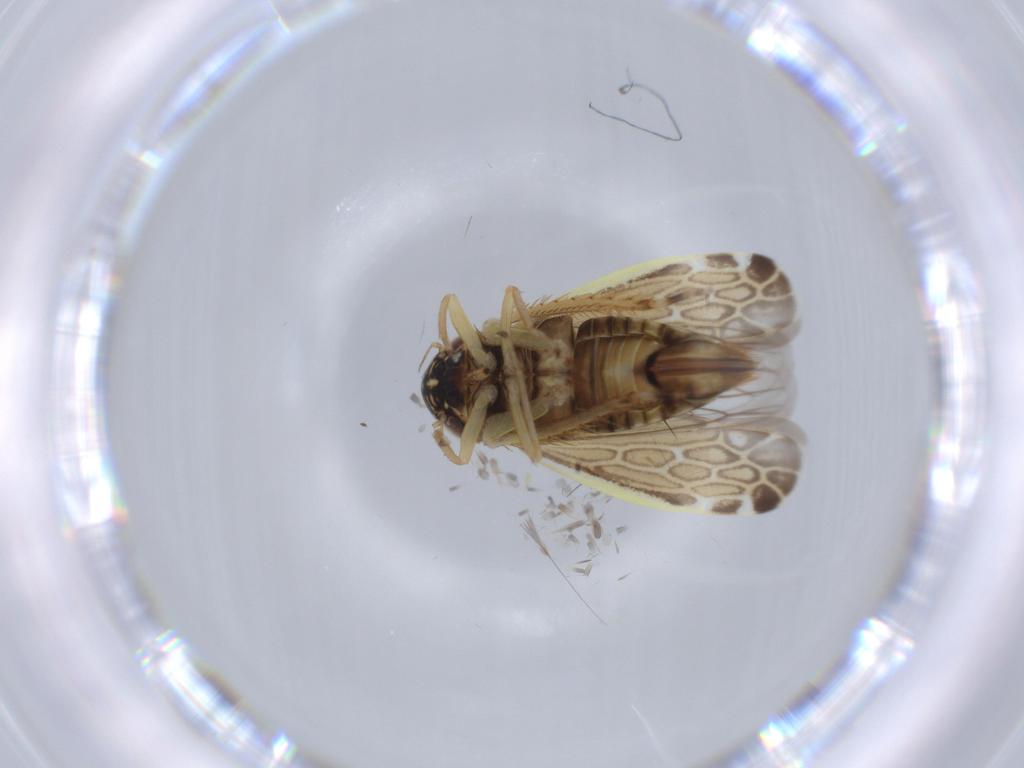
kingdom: Animalia
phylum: Arthropoda
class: Insecta
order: Hemiptera
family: Cicadellidae
